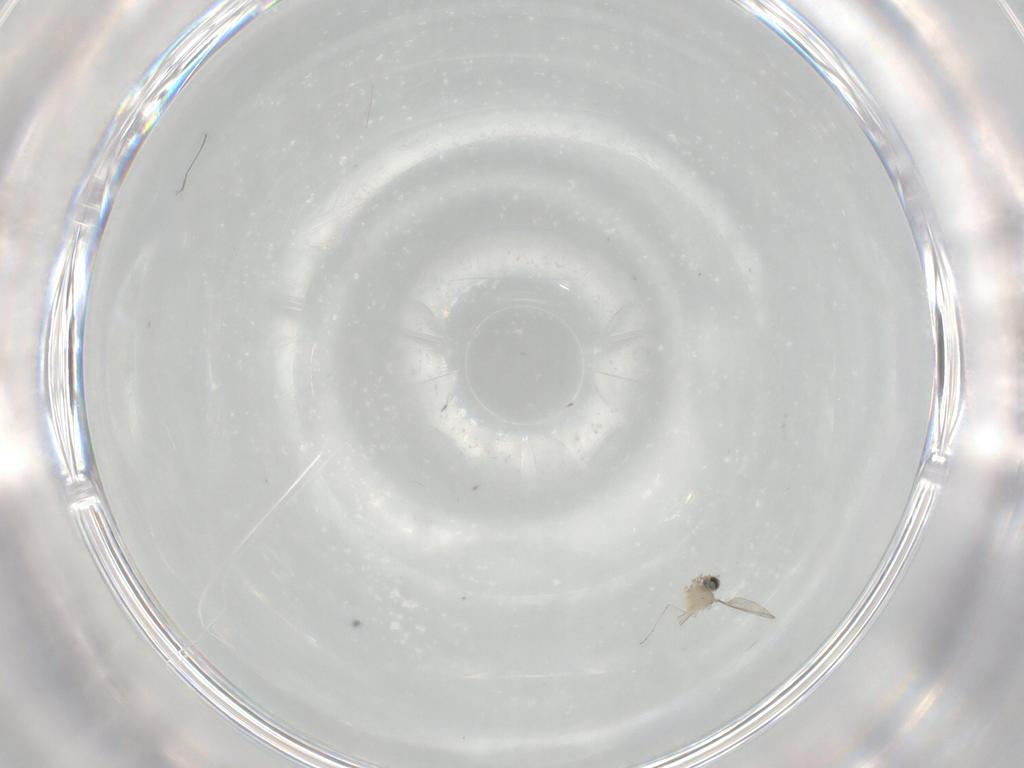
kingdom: Animalia
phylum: Arthropoda
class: Insecta
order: Diptera
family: Cecidomyiidae
